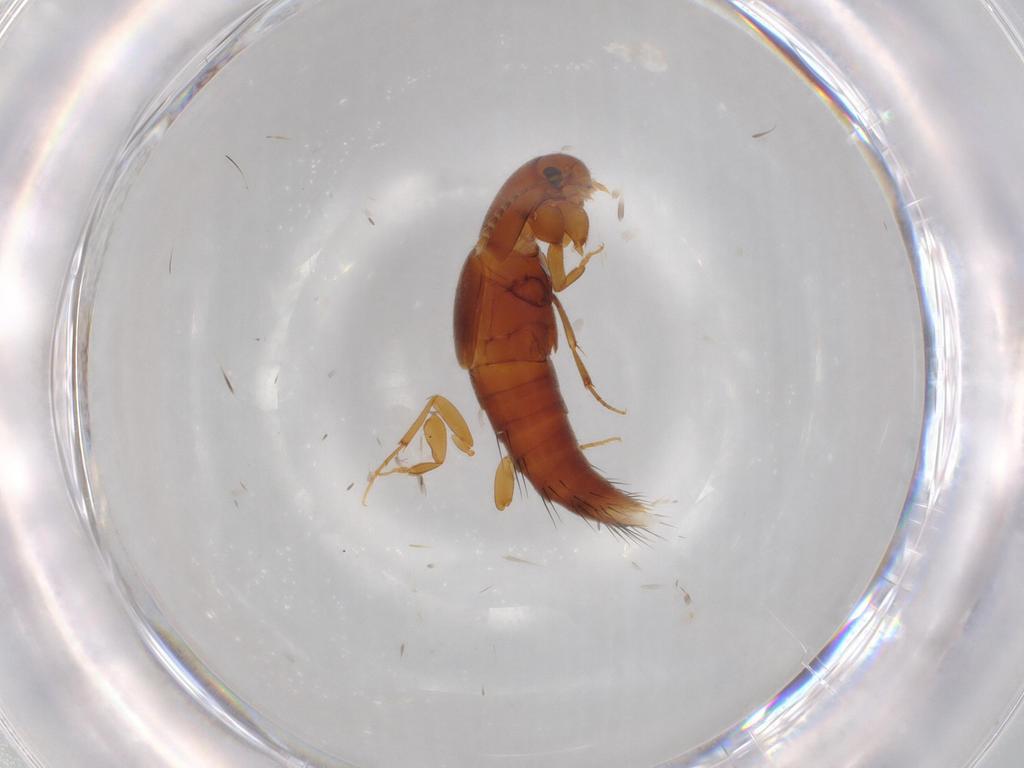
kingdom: Animalia
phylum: Arthropoda
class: Insecta
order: Coleoptera
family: Staphylinidae
